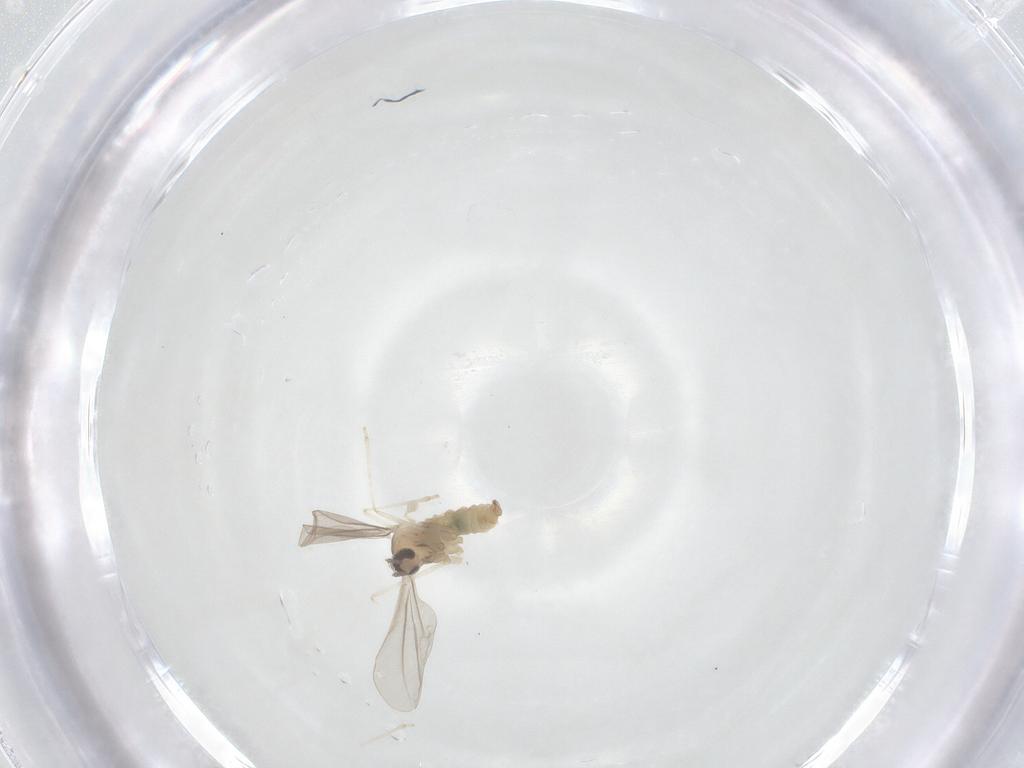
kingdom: Animalia
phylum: Arthropoda
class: Insecta
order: Diptera
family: Cecidomyiidae
